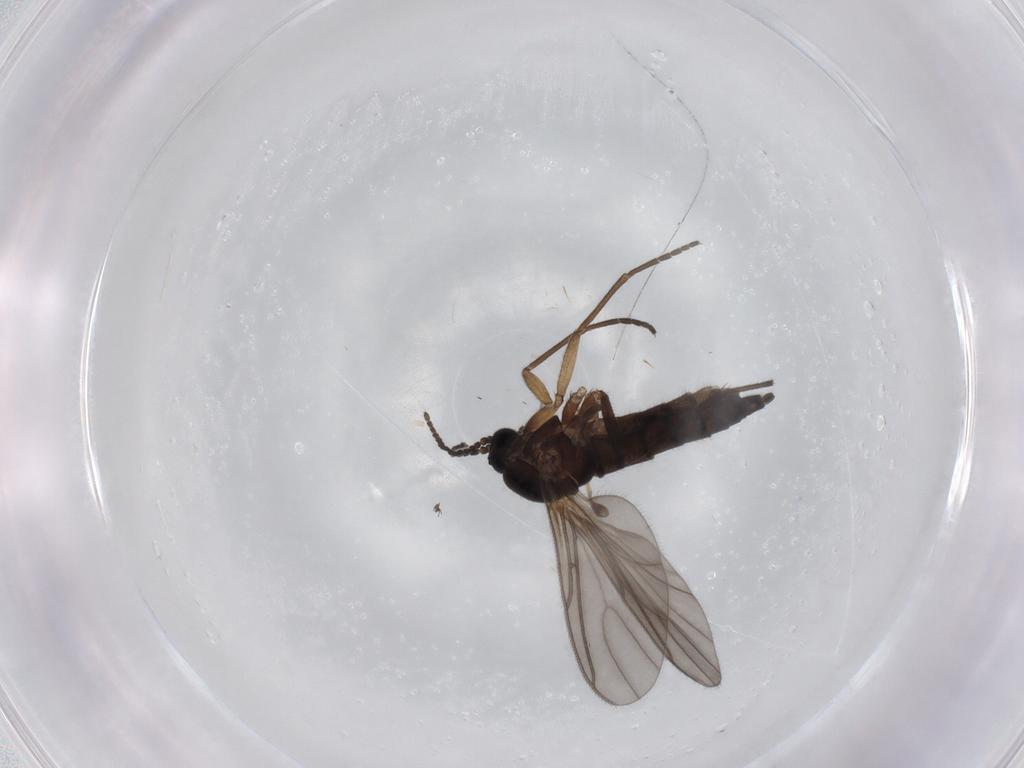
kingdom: Animalia
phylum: Arthropoda
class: Insecta
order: Diptera
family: Sciaridae
